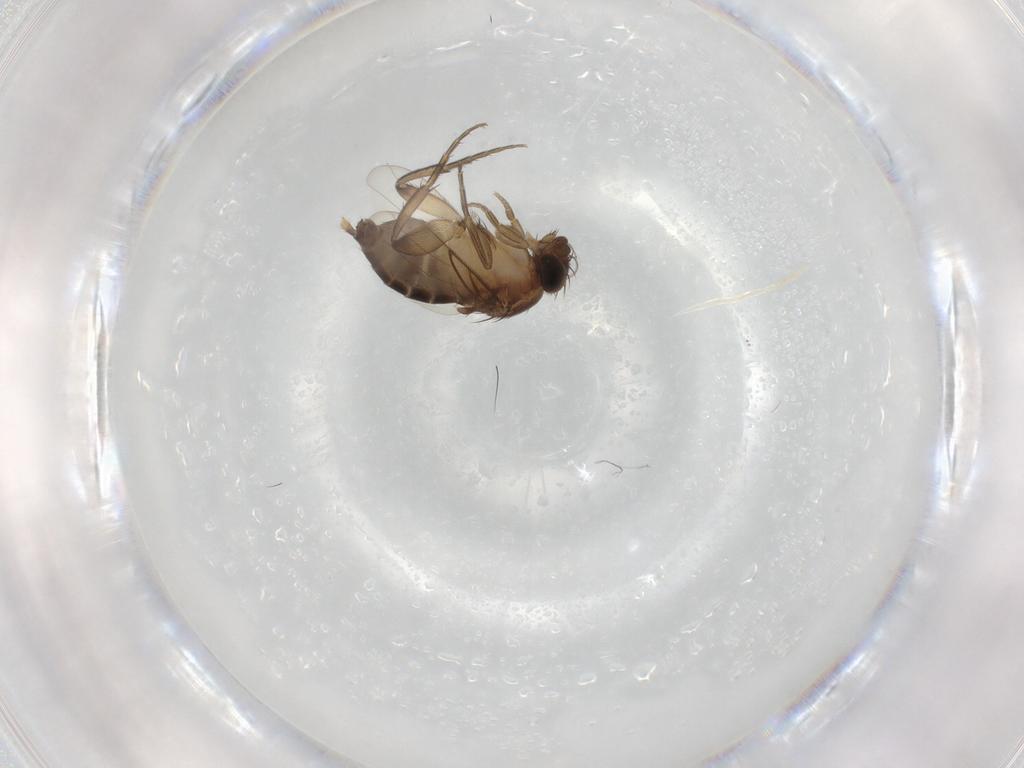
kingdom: Animalia
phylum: Arthropoda
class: Insecta
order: Diptera
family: Phoridae
